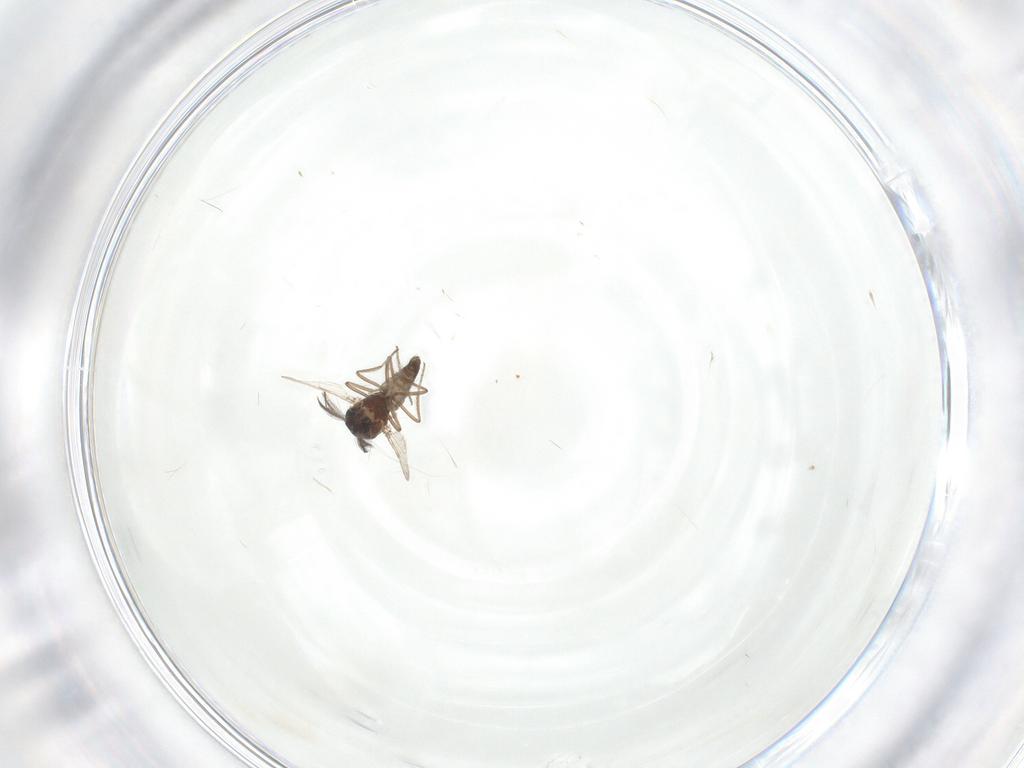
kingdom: Animalia
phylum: Arthropoda
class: Insecta
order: Diptera
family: Ceratopogonidae
